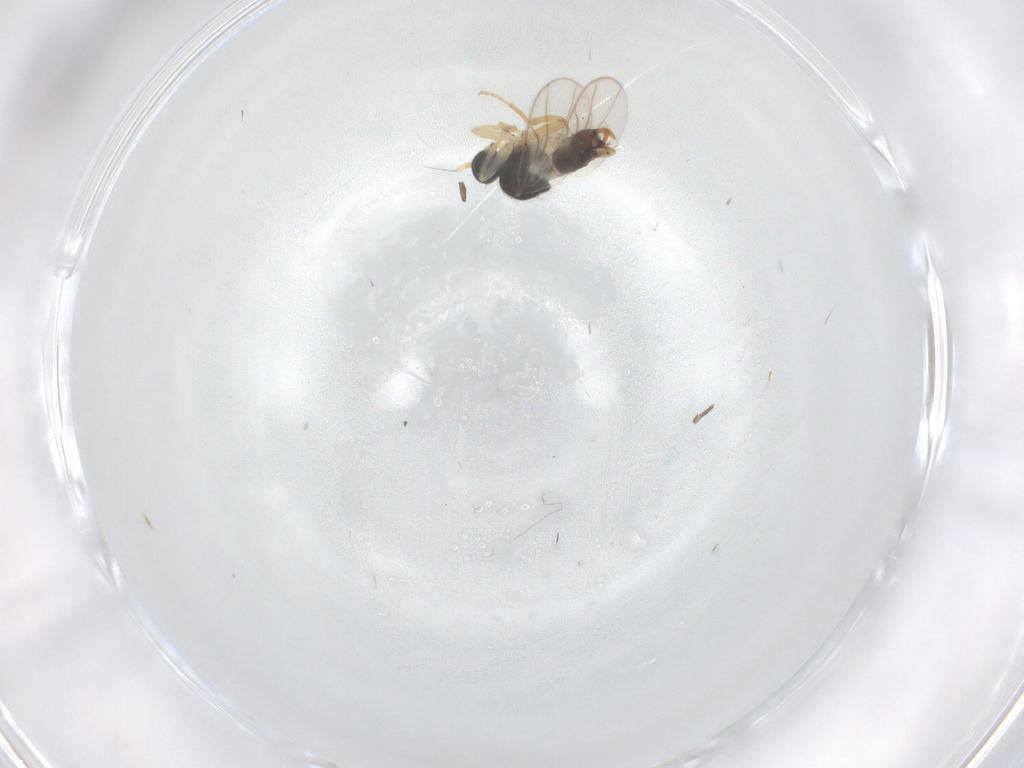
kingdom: Animalia
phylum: Arthropoda
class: Insecta
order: Diptera
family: Hybotidae
